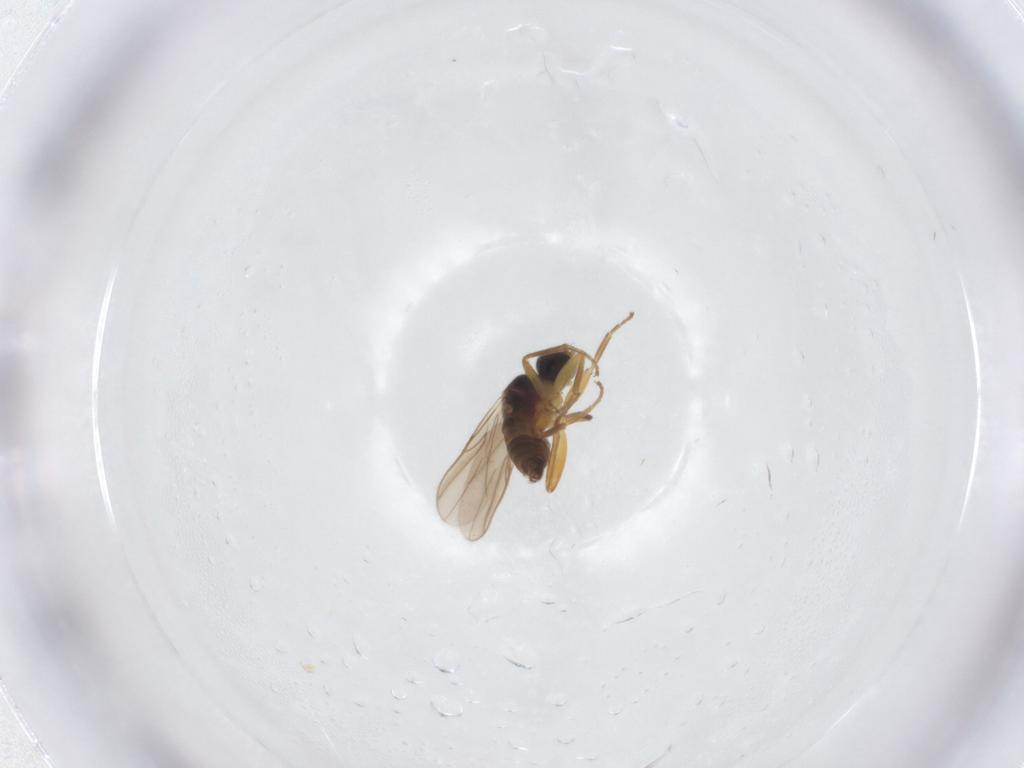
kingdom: Animalia
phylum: Arthropoda
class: Insecta
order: Diptera
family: Hybotidae
